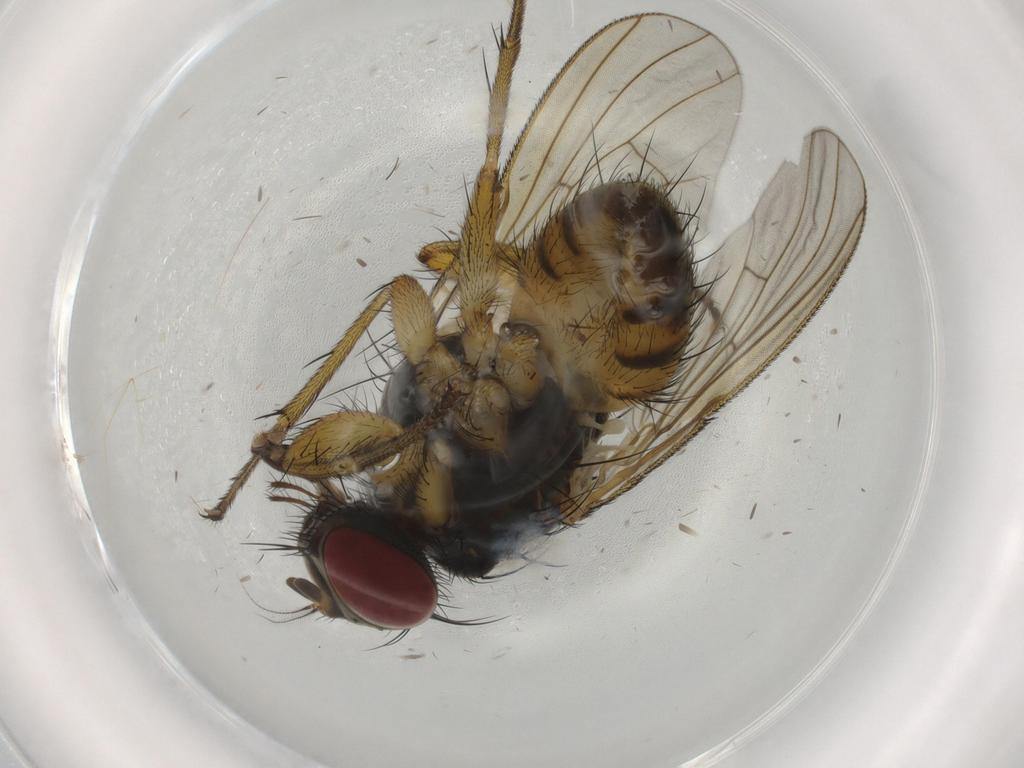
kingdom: Animalia
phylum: Arthropoda
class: Insecta
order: Diptera
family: Muscidae
